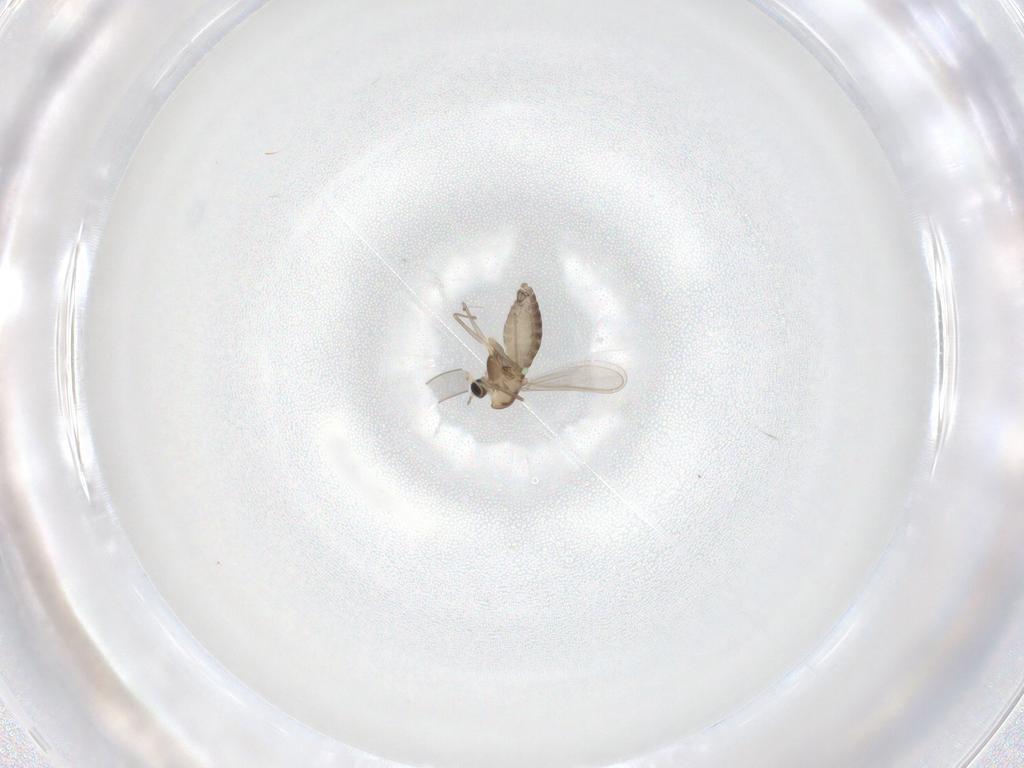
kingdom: Animalia
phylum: Arthropoda
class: Insecta
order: Diptera
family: Chironomidae
